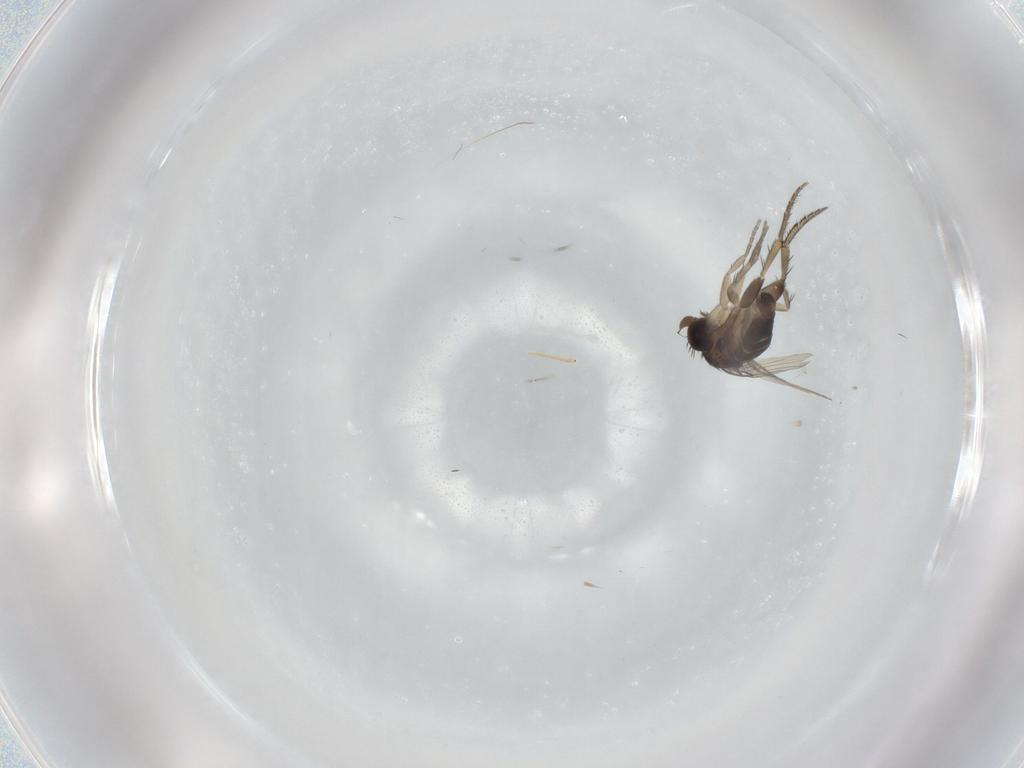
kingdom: Animalia
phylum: Arthropoda
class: Insecta
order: Diptera
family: Phoridae
